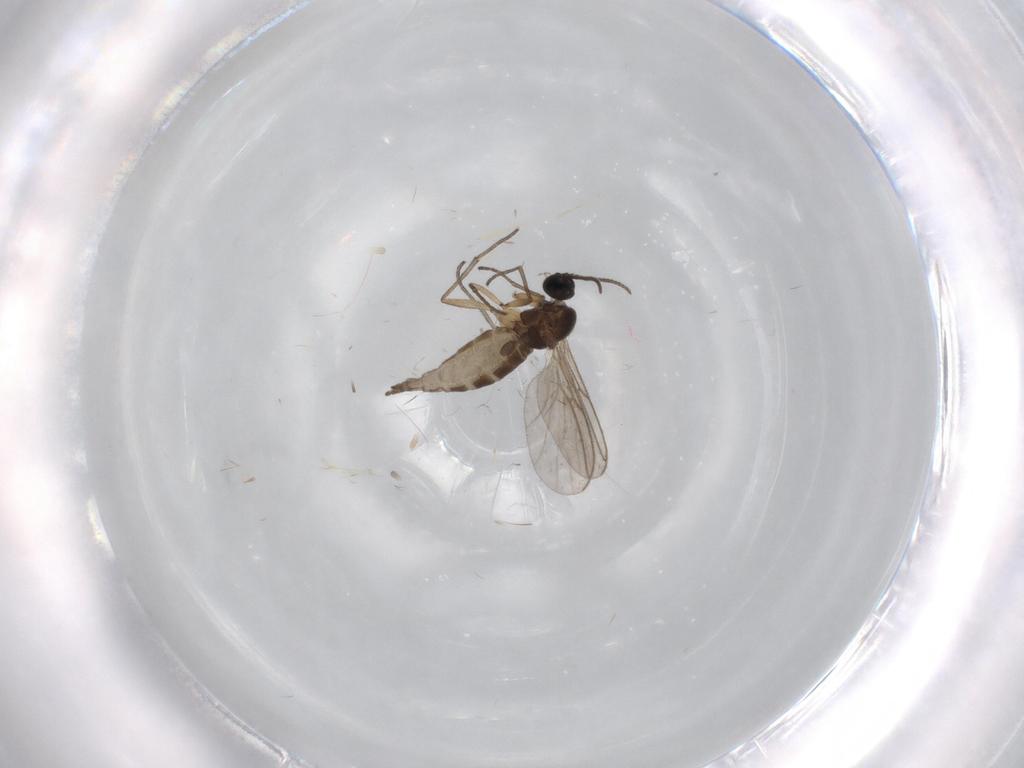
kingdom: Animalia
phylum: Arthropoda
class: Insecta
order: Diptera
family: Sciaridae
